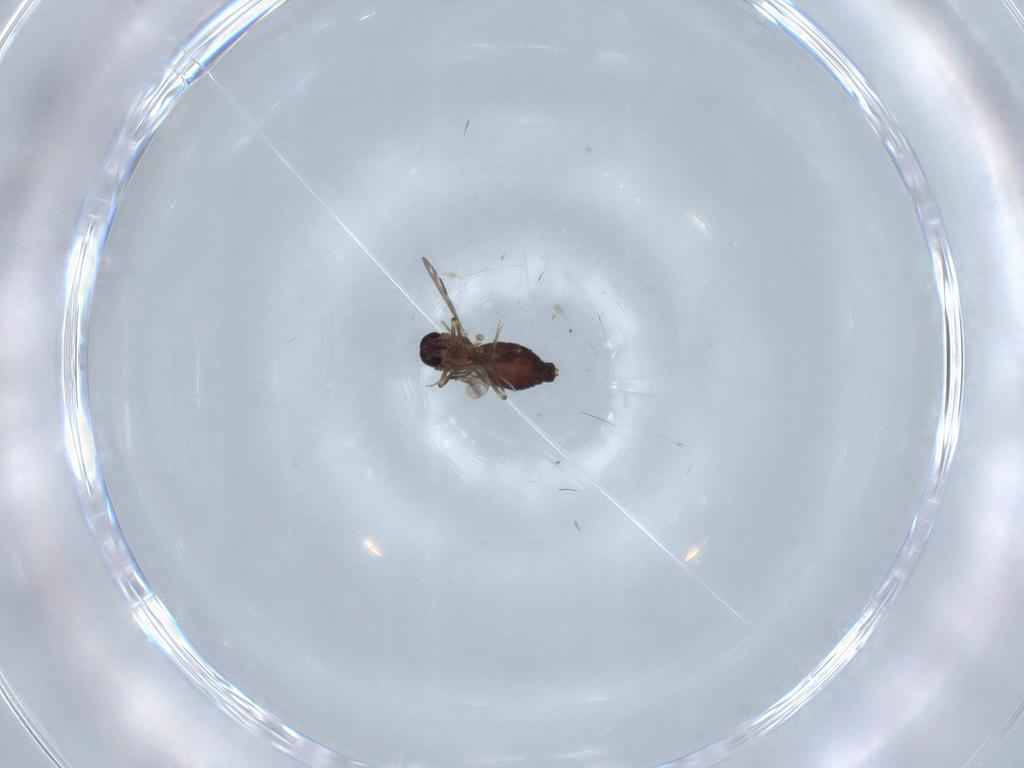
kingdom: Animalia
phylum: Arthropoda
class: Insecta
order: Diptera
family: Ceratopogonidae
